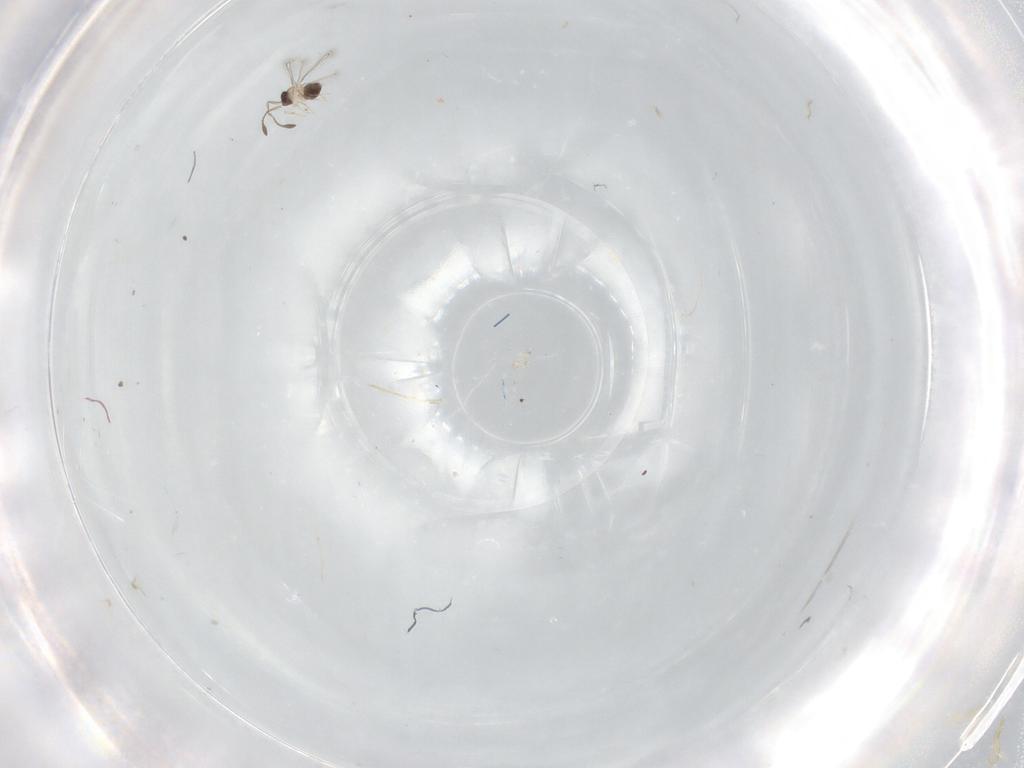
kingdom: Animalia
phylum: Arthropoda
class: Insecta
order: Hymenoptera
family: Mymaridae
